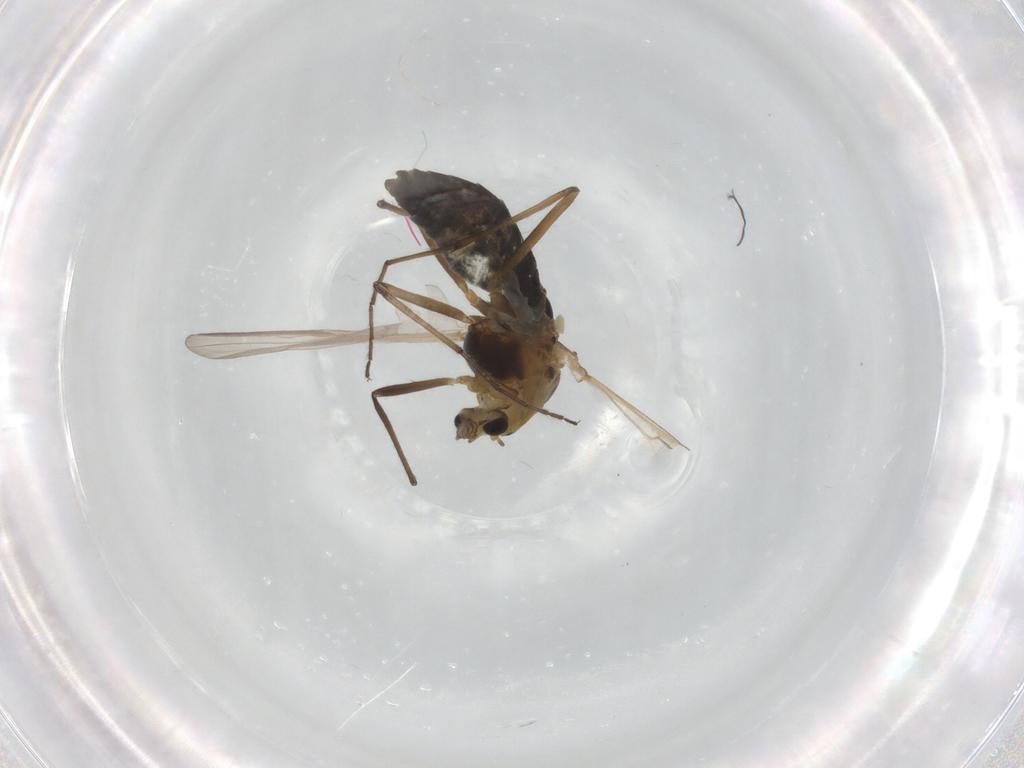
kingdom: Animalia
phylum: Arthropoda
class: Insecta
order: Diptera
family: Chironomidae
